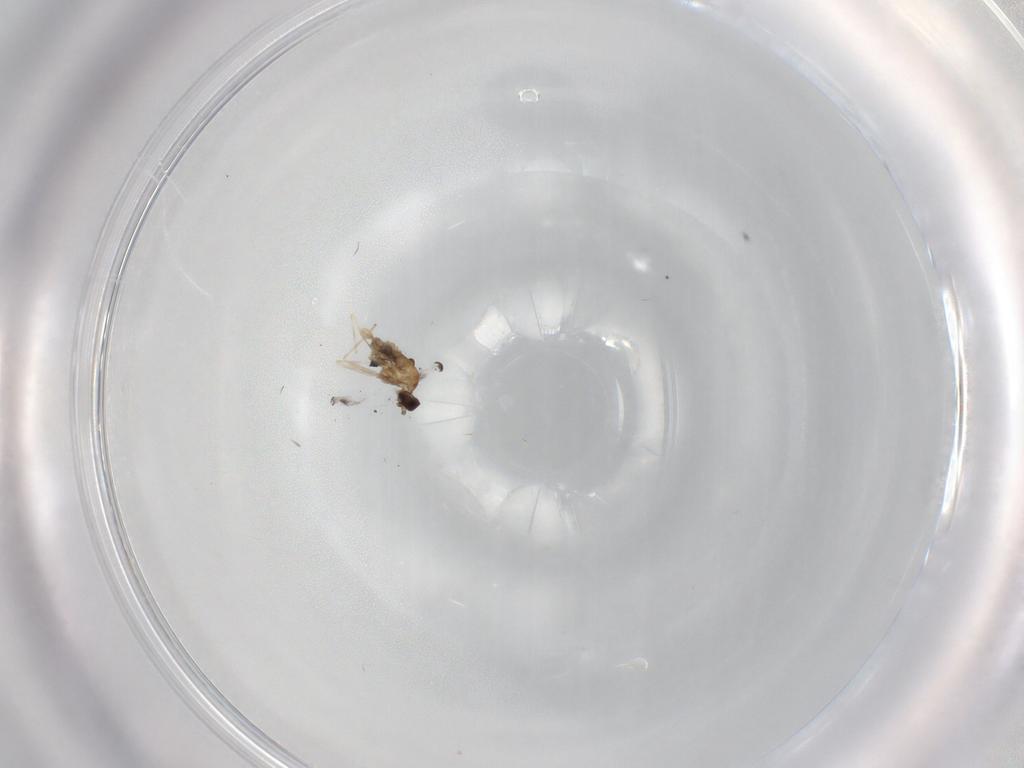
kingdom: Animalia
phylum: Arthropoda
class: Insecta
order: Diptera
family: Cecidomyiidae
